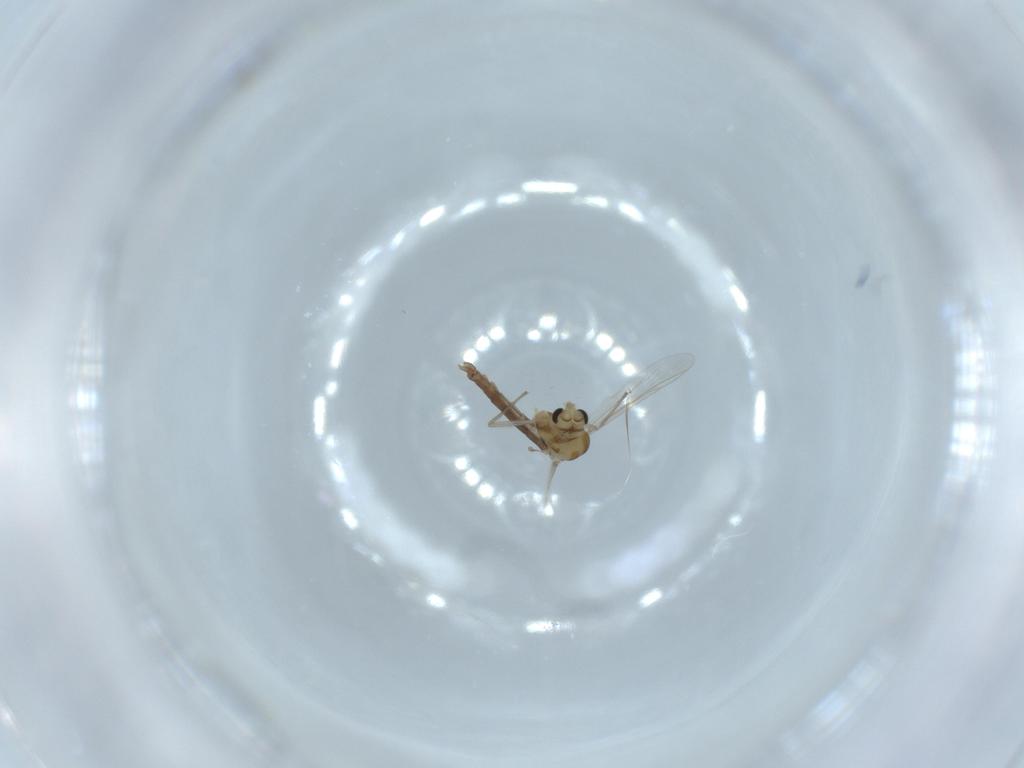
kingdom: Animalia
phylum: Arthropoda
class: Insecta
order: Diptera
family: Chironomidae
